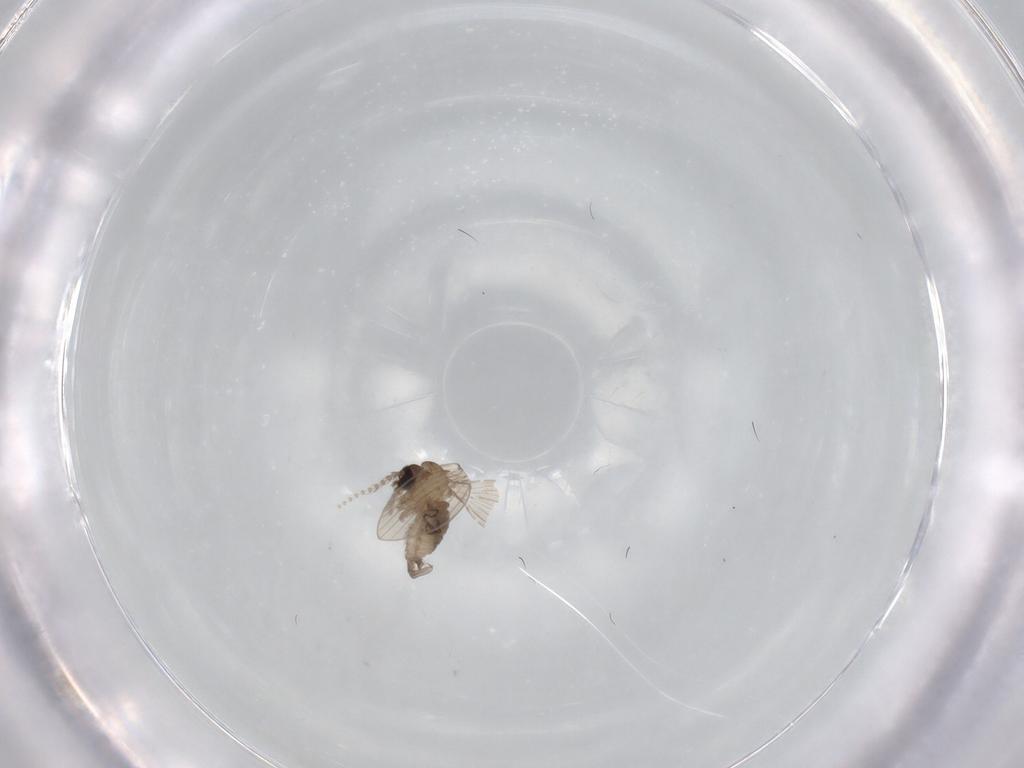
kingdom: Animalia
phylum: Arthropoda
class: Insecta
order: Diptera
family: Psychodidae
